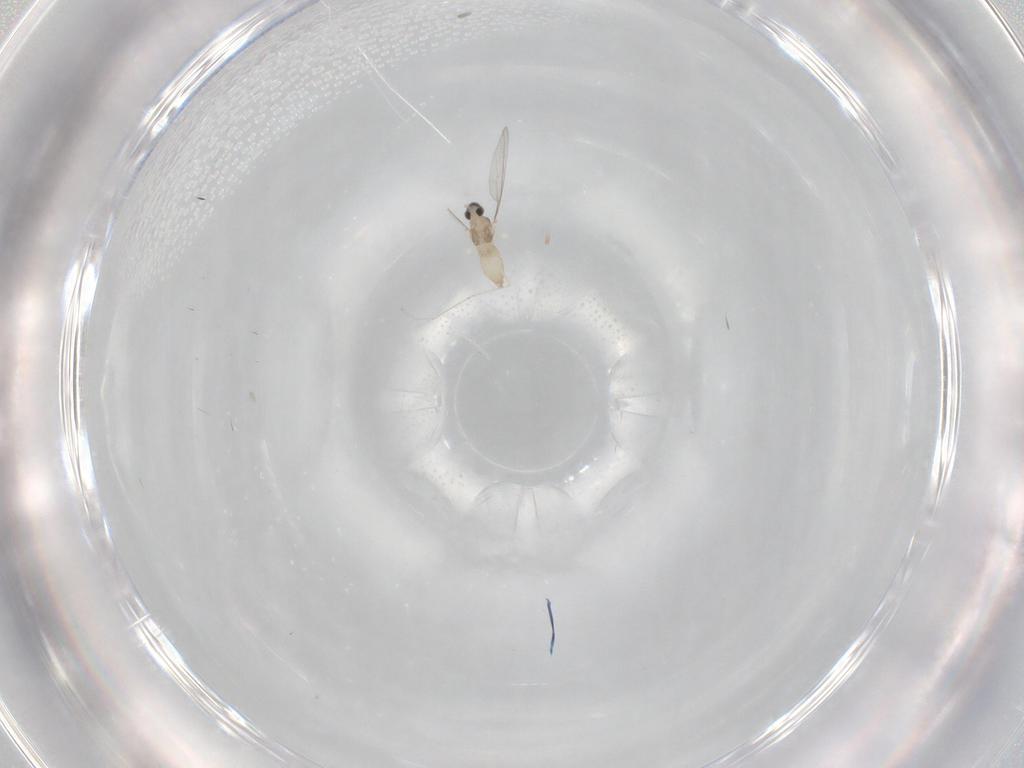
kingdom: Animalia
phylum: Arthropoda
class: Insecta
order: Diptera
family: Cecidomyiidae
